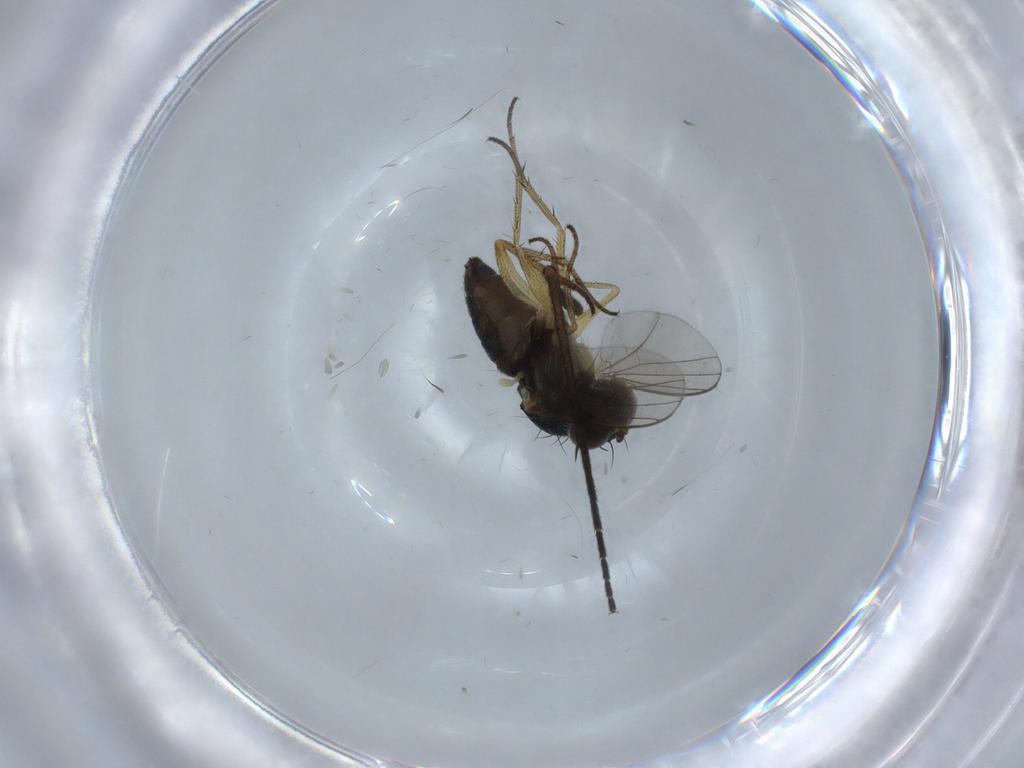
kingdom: Animalia
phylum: Arthropoda
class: Insecta
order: Diptera
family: Sciaridae
